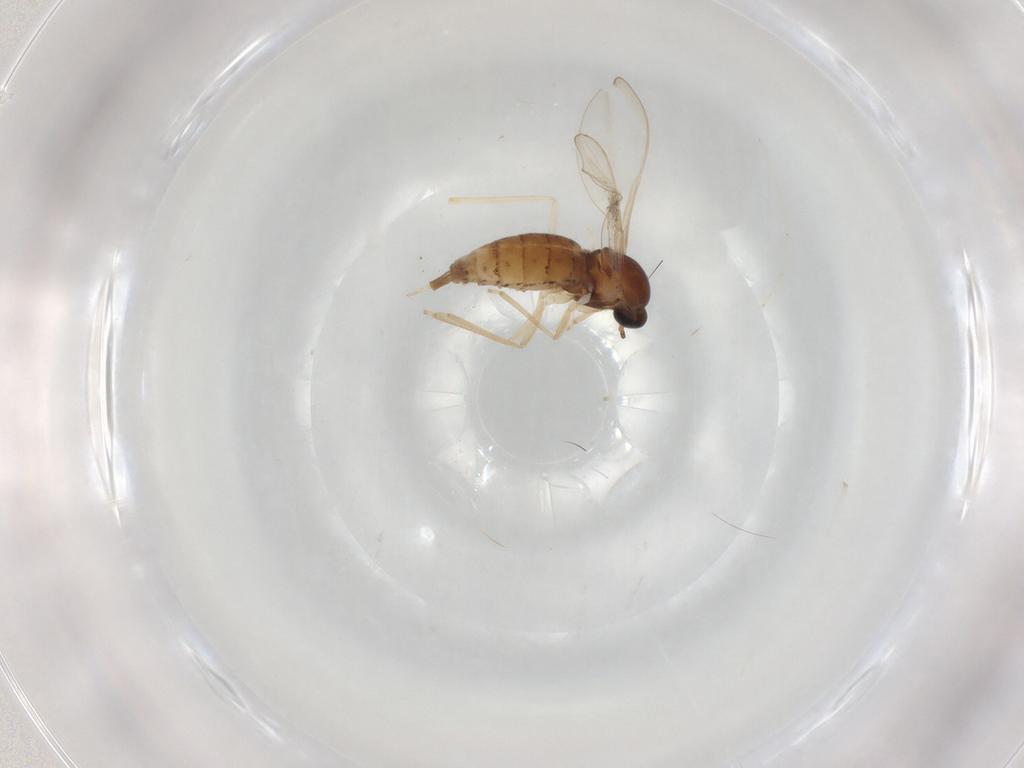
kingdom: Animalia
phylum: Arthropoda
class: Insecta
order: Diptera
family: Cecidomyiidae
